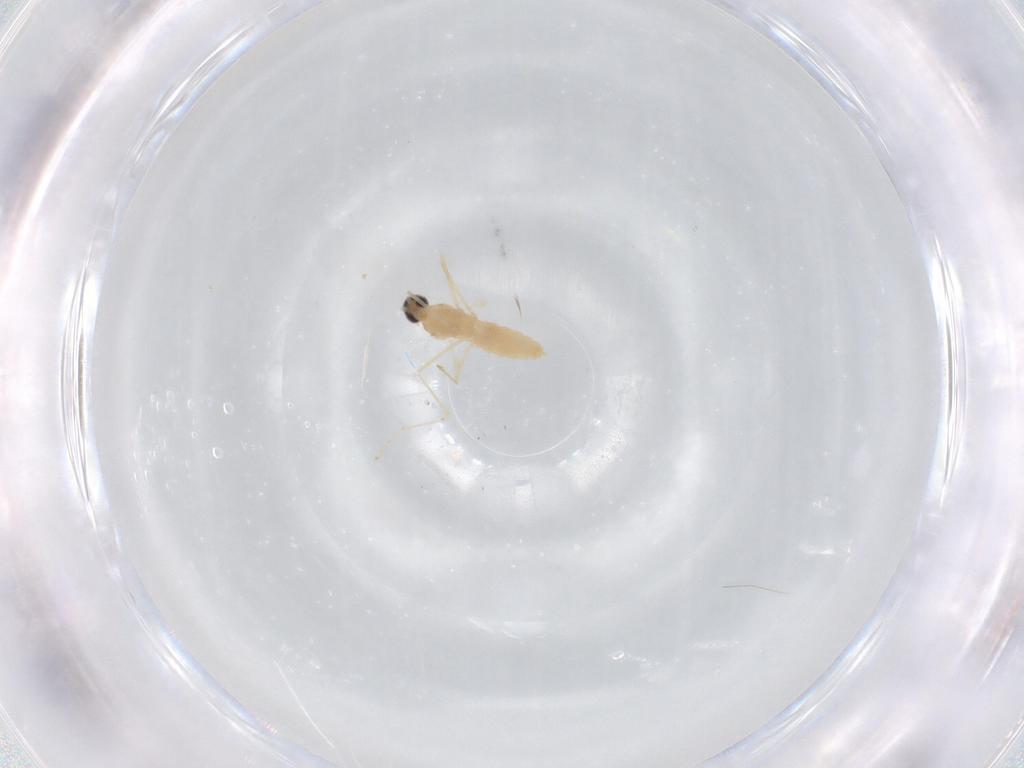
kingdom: Animalia
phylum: Arthropoda
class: Insecta
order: Diptera
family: Cecidomyiidae
